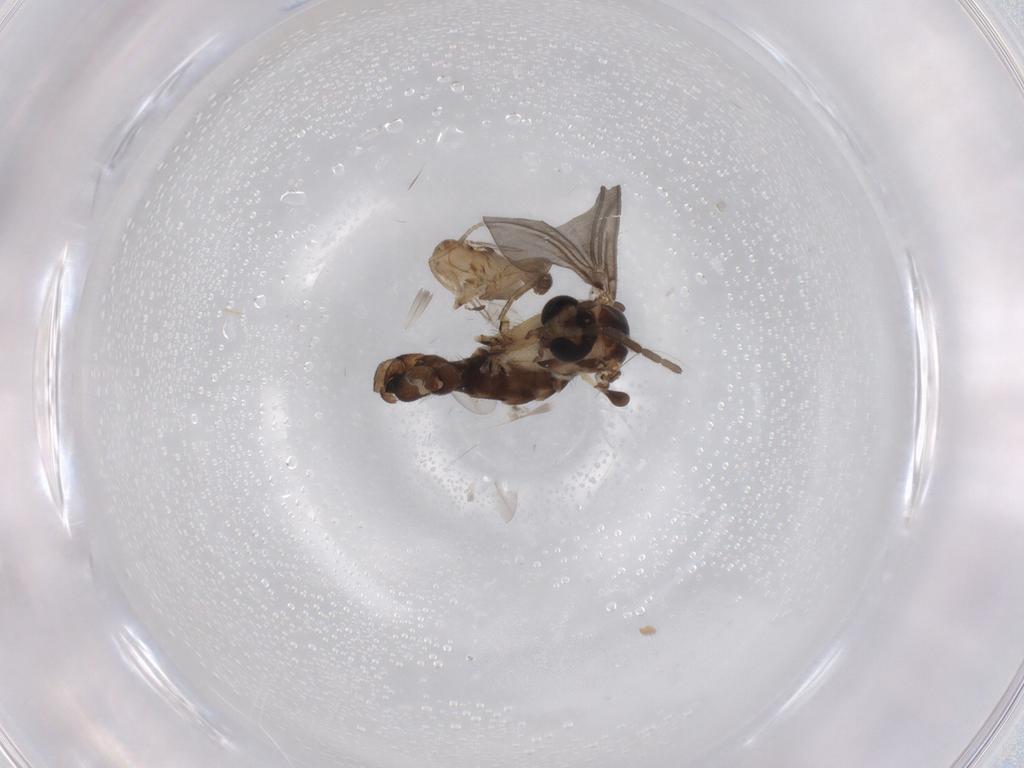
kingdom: Animalia
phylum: Arthropoda
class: Insecta
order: Diptera
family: Sciaridae
